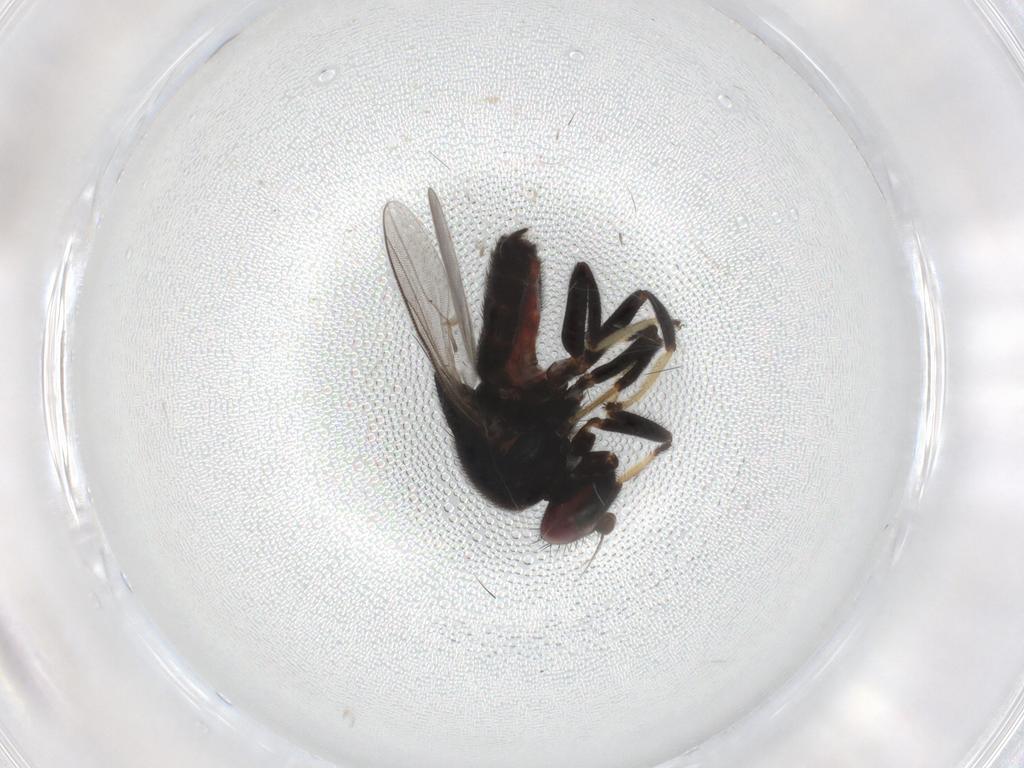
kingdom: Animalia
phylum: Arthropoda
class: Insecta
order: Diptera
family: Chloropidae
